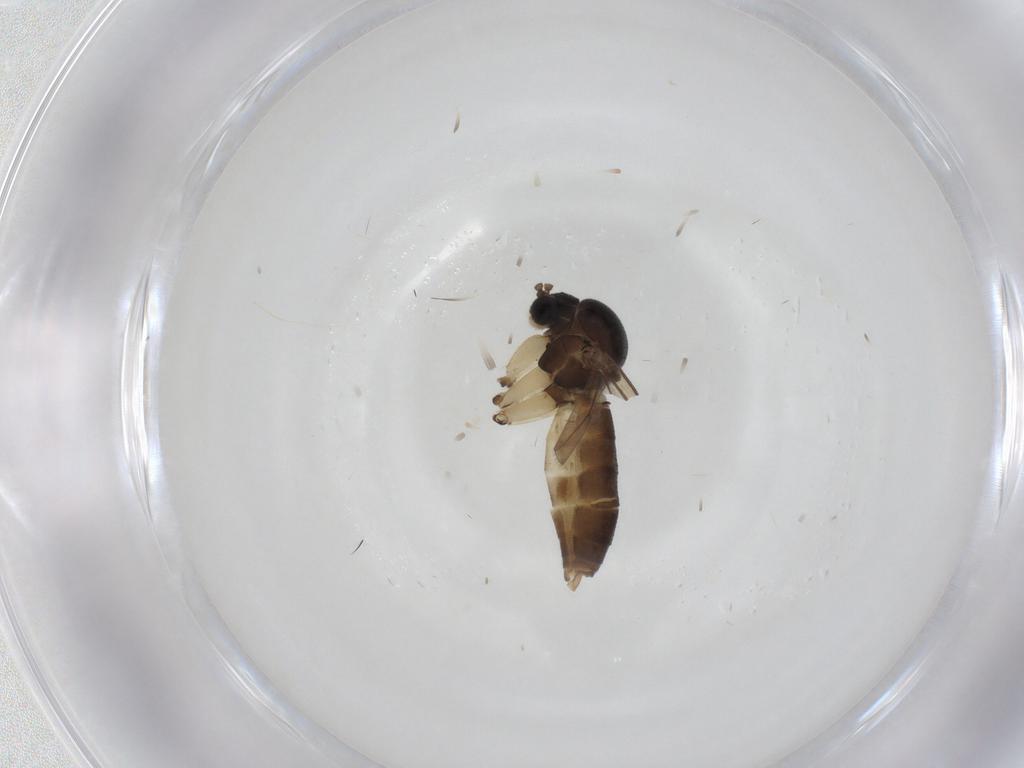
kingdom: Animalia
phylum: Arthropoda
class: Insecta
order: Diptera
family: Mycetophilidae
